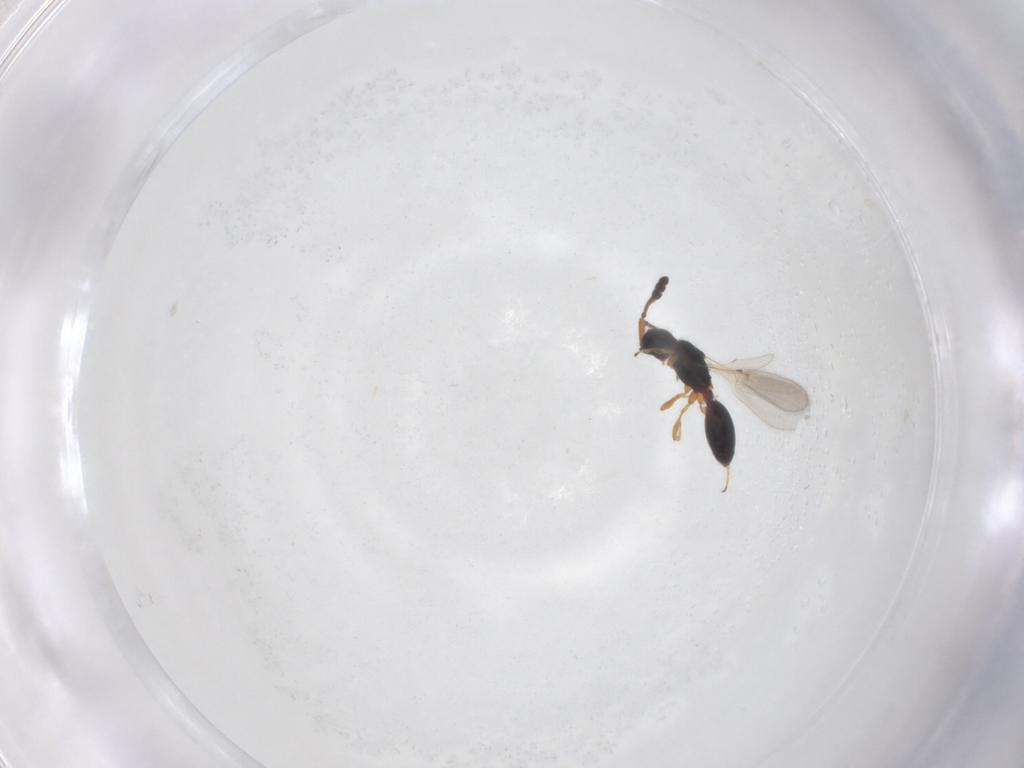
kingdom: Animalia
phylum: Arthropoda
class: Insecta
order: Hymenoptera
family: Diapriidae
